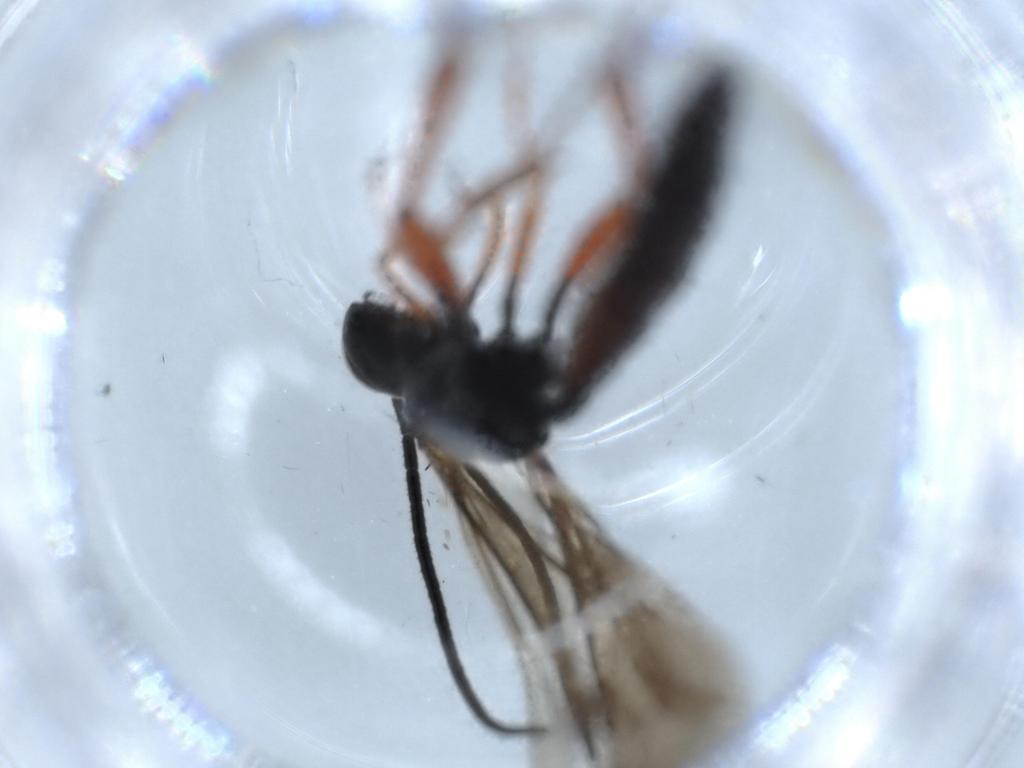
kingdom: Animalia
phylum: Arthropoda
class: Insecta
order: Hymenoptera
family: Ichneumonidae
